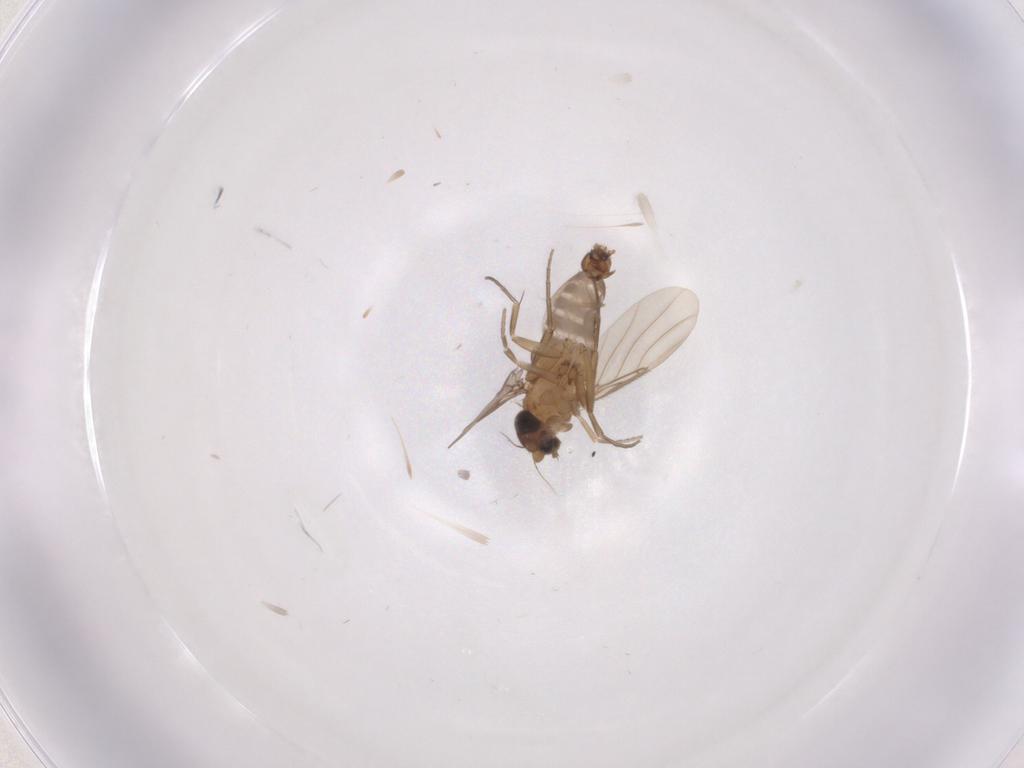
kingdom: Animalia
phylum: Arthropoda
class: Insecta
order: Diptera
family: Phoridae
